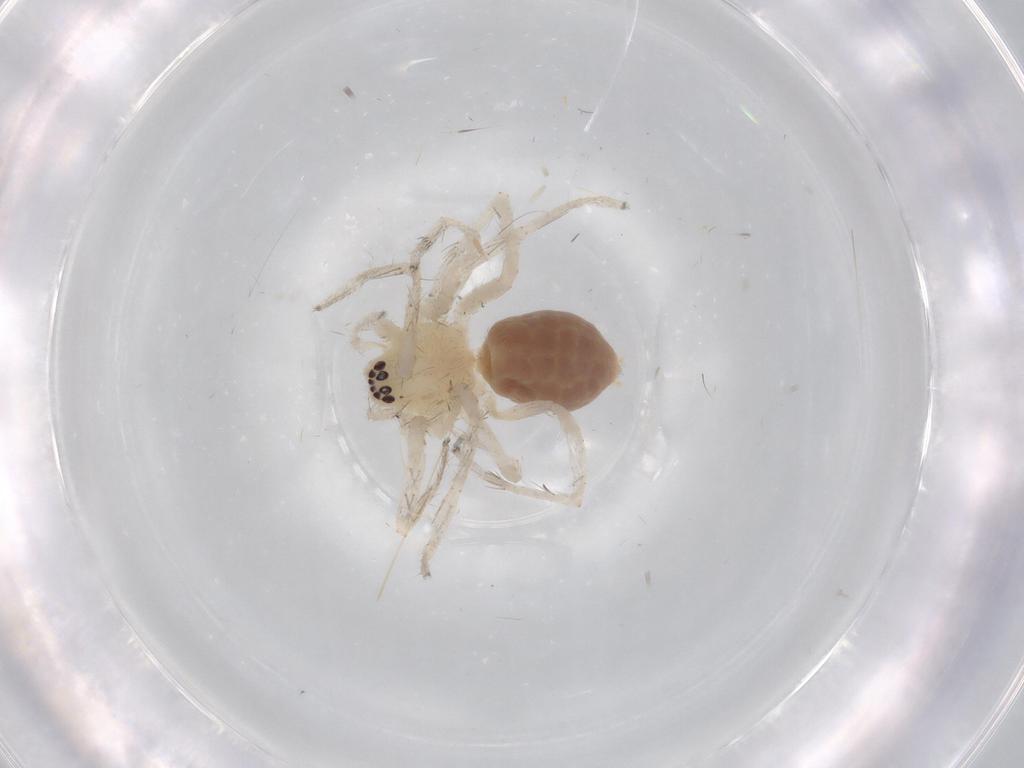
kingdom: Animalia
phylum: Arthropoda
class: Arachnida
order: Araneae
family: Anyphaenidae
